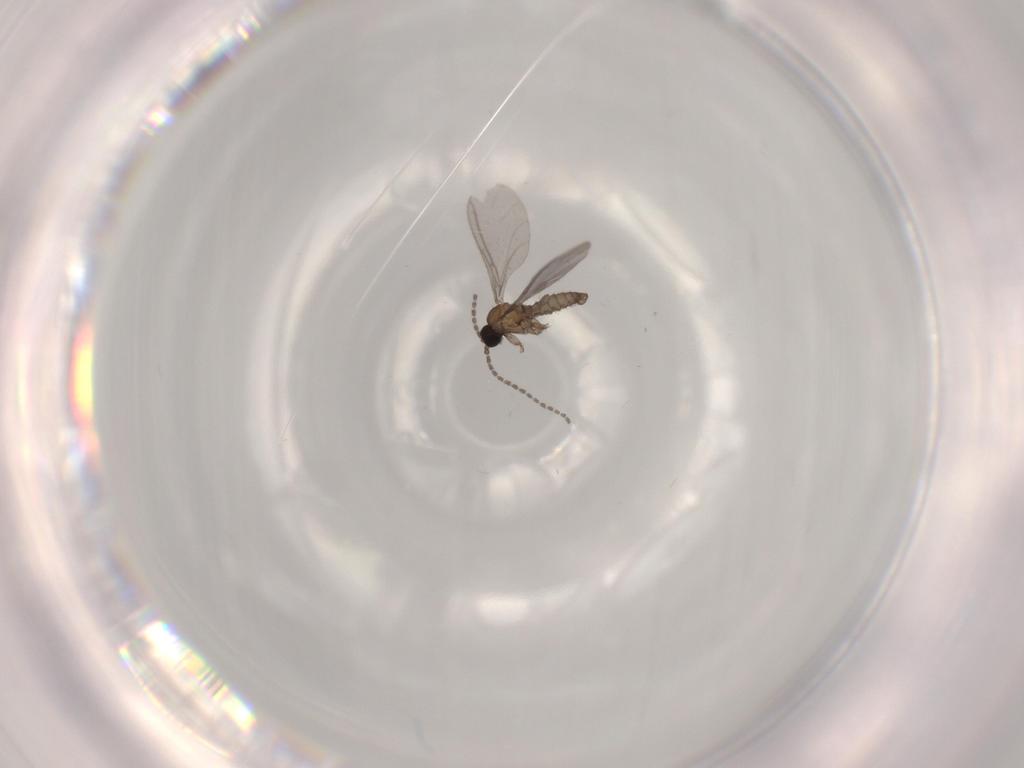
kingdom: Animalia
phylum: Arthropoda
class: Insecta
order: Diptera
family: Sciaridae
